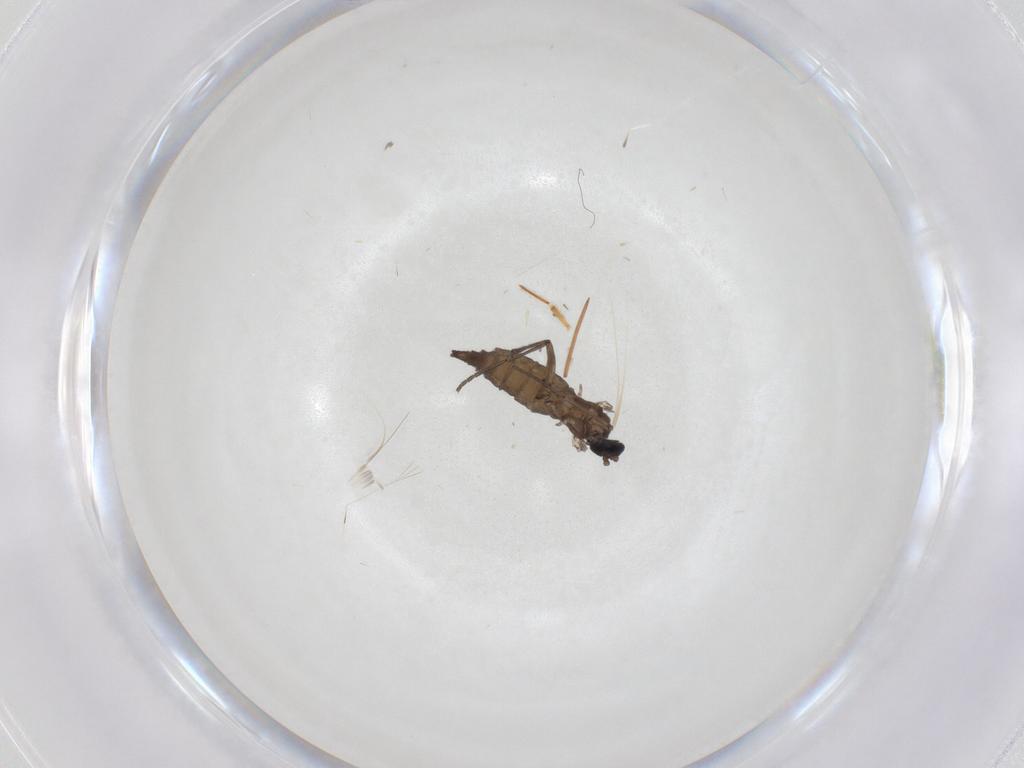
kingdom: Animalia
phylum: Arthropoda
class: Insecta
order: Diptera
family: Sciaridae
